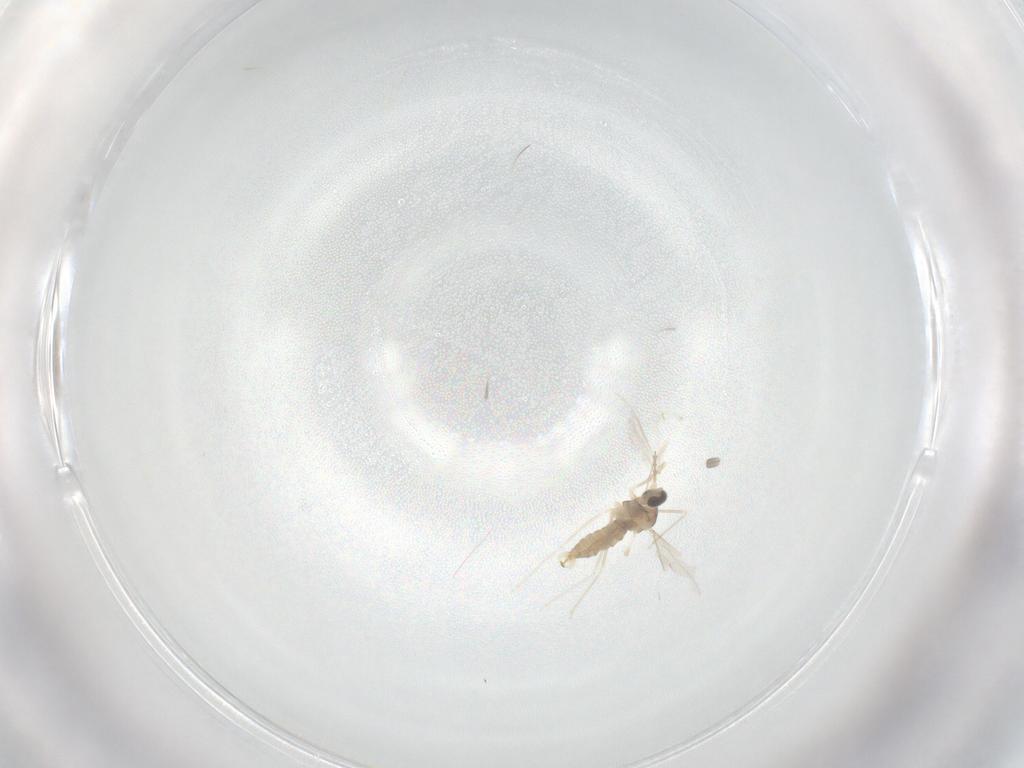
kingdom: Animalia
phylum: Arthropoda
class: Insecta
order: Diptera
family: Cecidomyiidae
